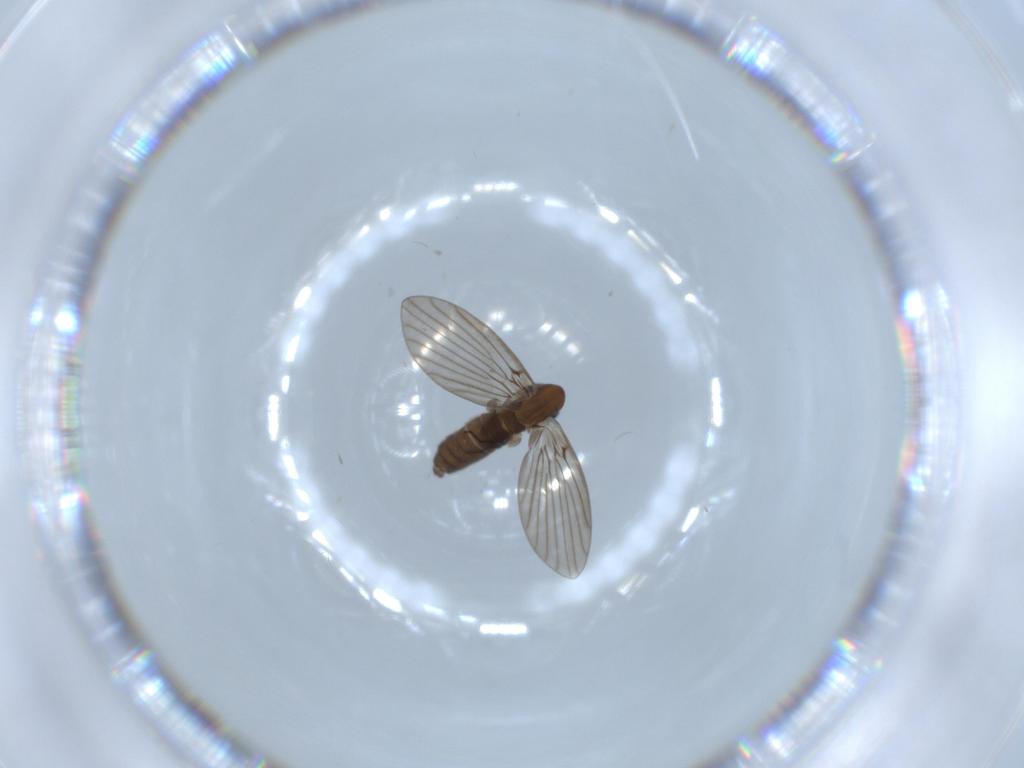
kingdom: Animalia
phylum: Arthropoda
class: Insecta
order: Diptera
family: Psychodidae
